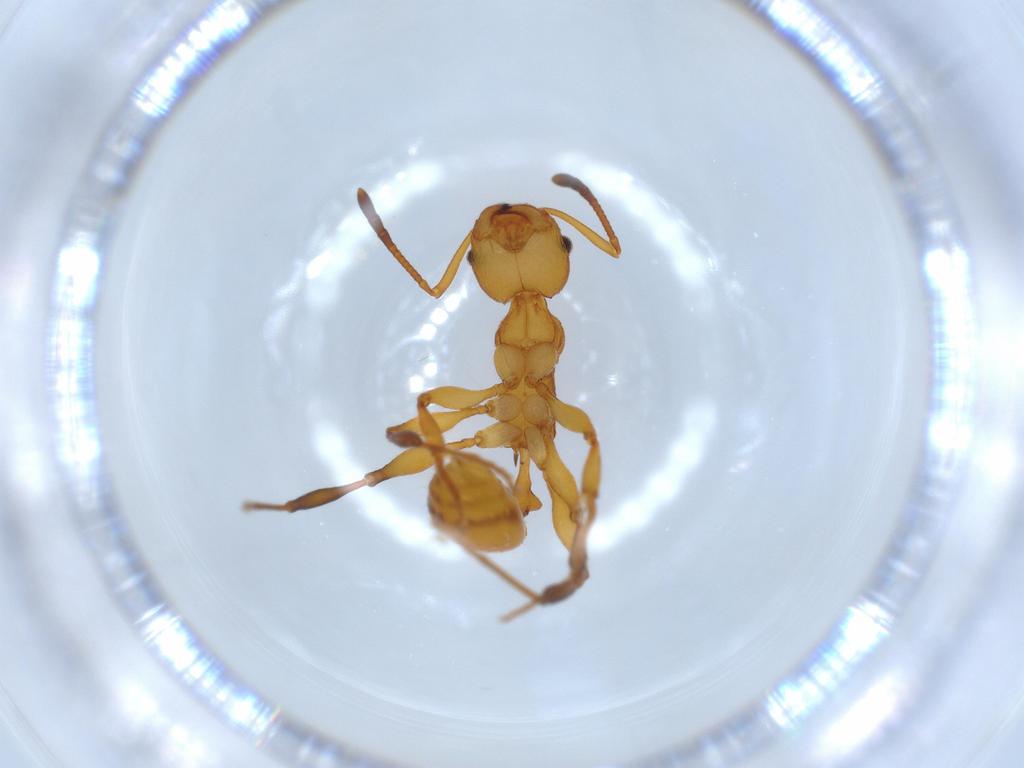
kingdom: Animalia
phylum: Arthropoda
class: Insecta
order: Hymenoptera
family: Formicidae
